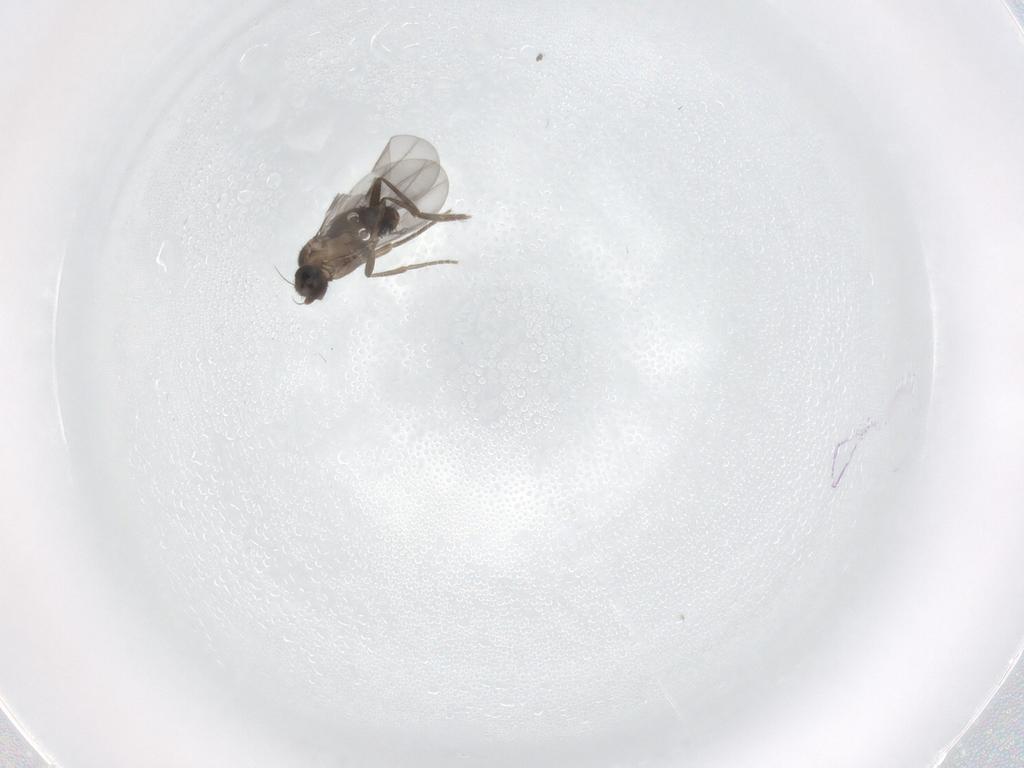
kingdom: Animalia
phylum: Arthropoda
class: Insecta
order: Diptera
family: Phoridae
